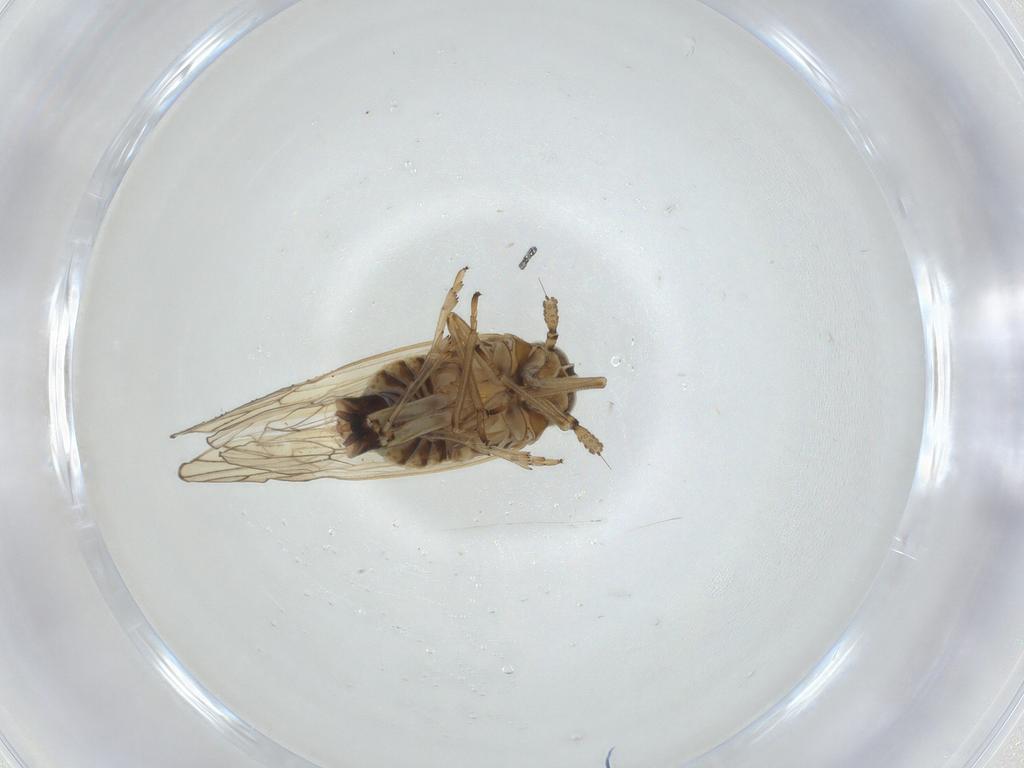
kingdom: Animalia
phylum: Arthropoda
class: Insecta
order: Hemiptera
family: Delphacidae
